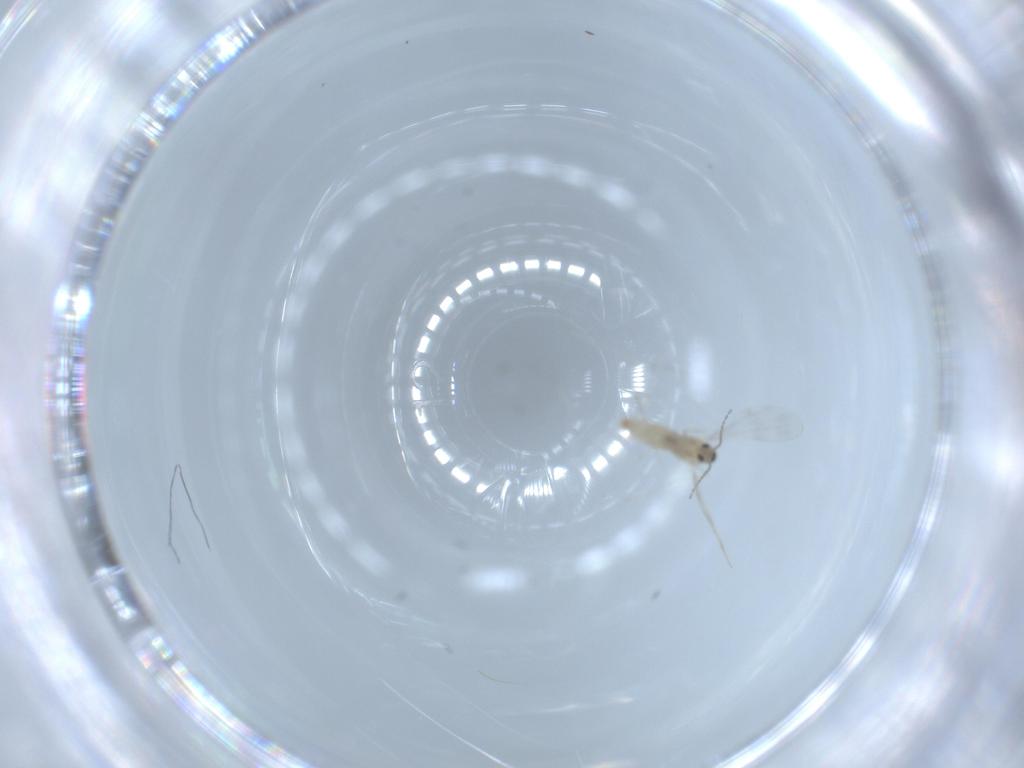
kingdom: Animalia
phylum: Arthropoda
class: Insecta
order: Diptera
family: Cecidomyiidae
